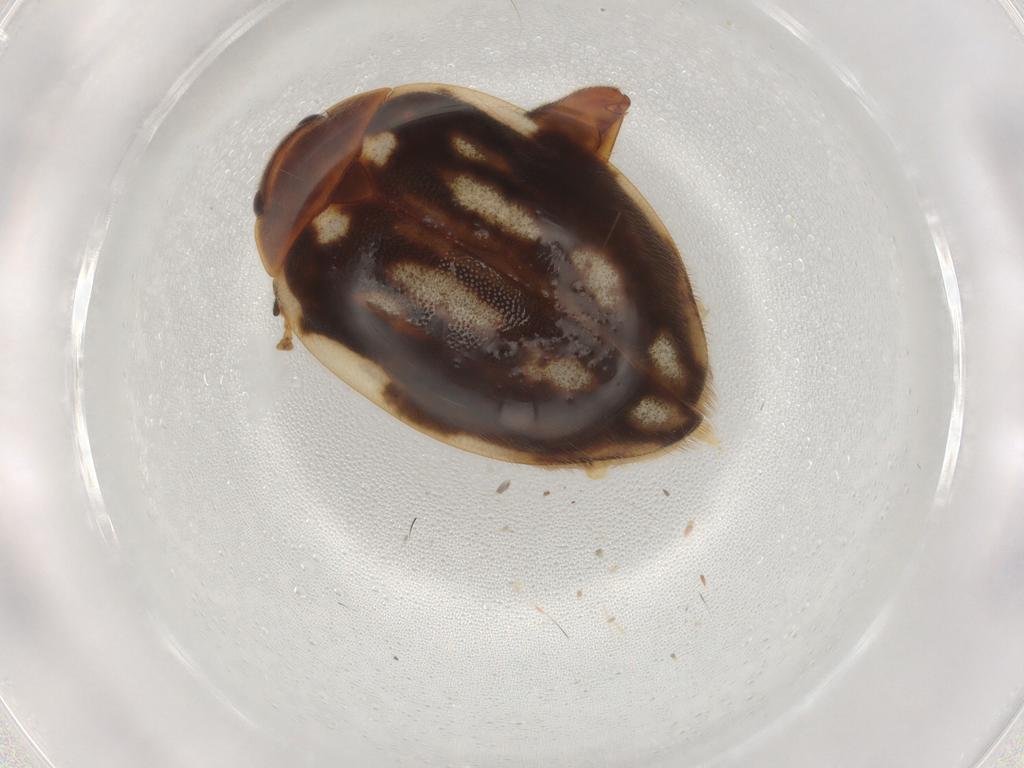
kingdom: Animalia
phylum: Arthropoda
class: Insecta
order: Coleoptera
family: Scirtidae
